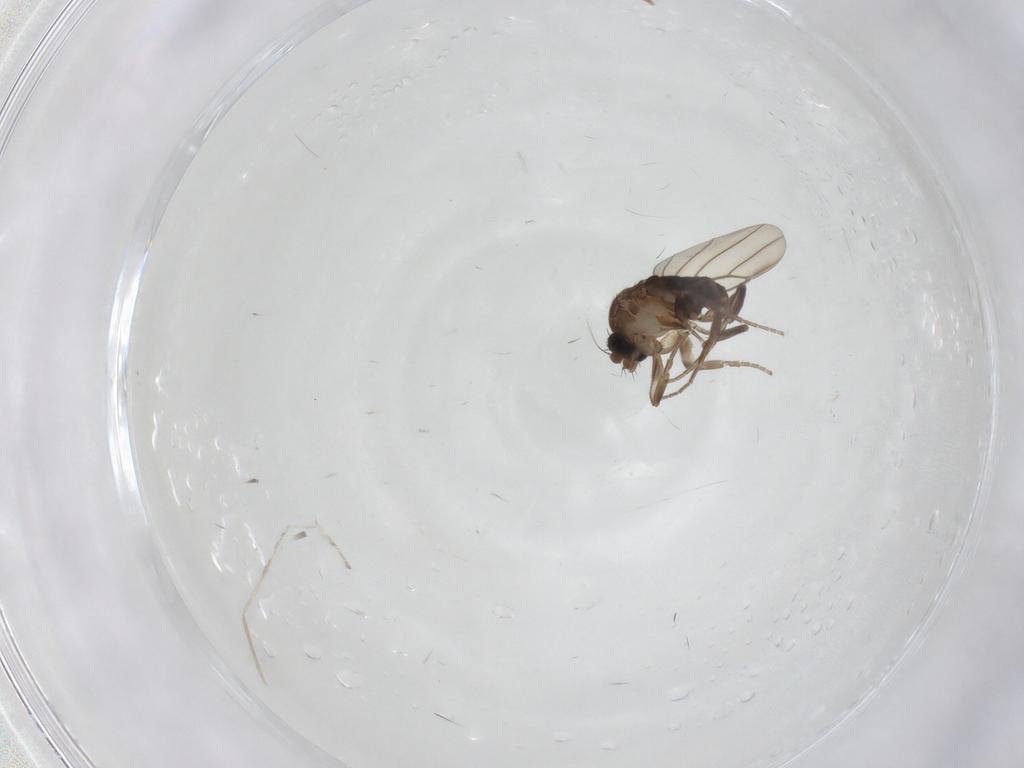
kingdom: Animalia
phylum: Arthropoda
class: Insecta
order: Diptera
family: Phoridae
